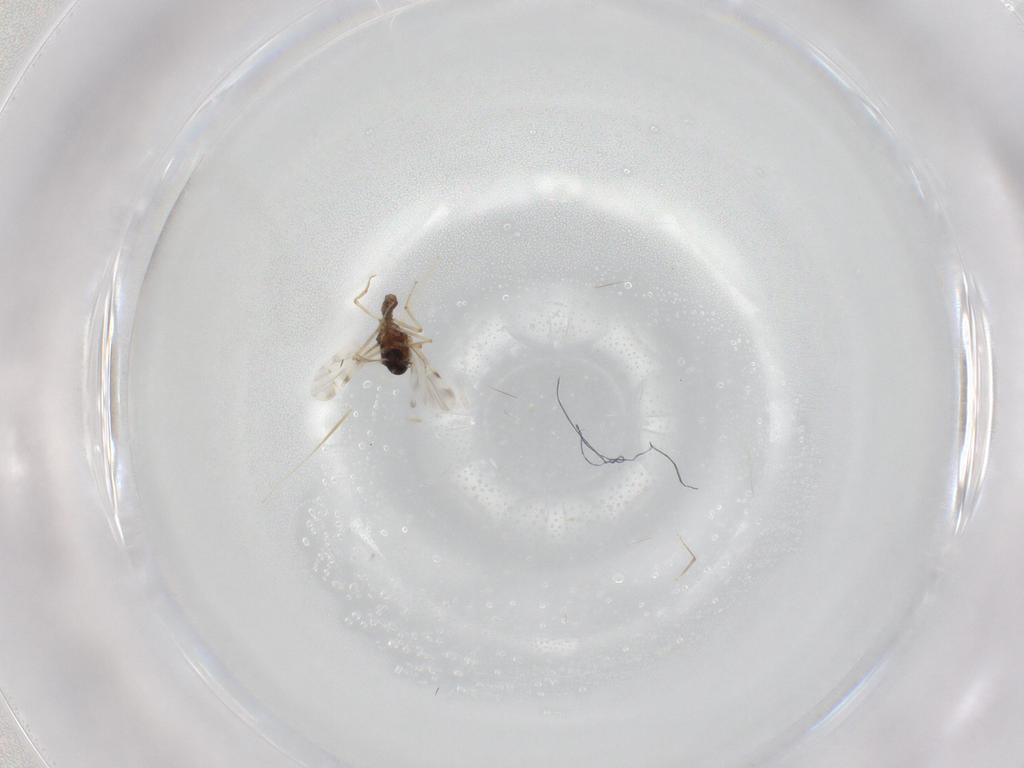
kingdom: Animalia
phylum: Arthropoda
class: Insecta
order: Diptera
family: Ceratopogonidae
